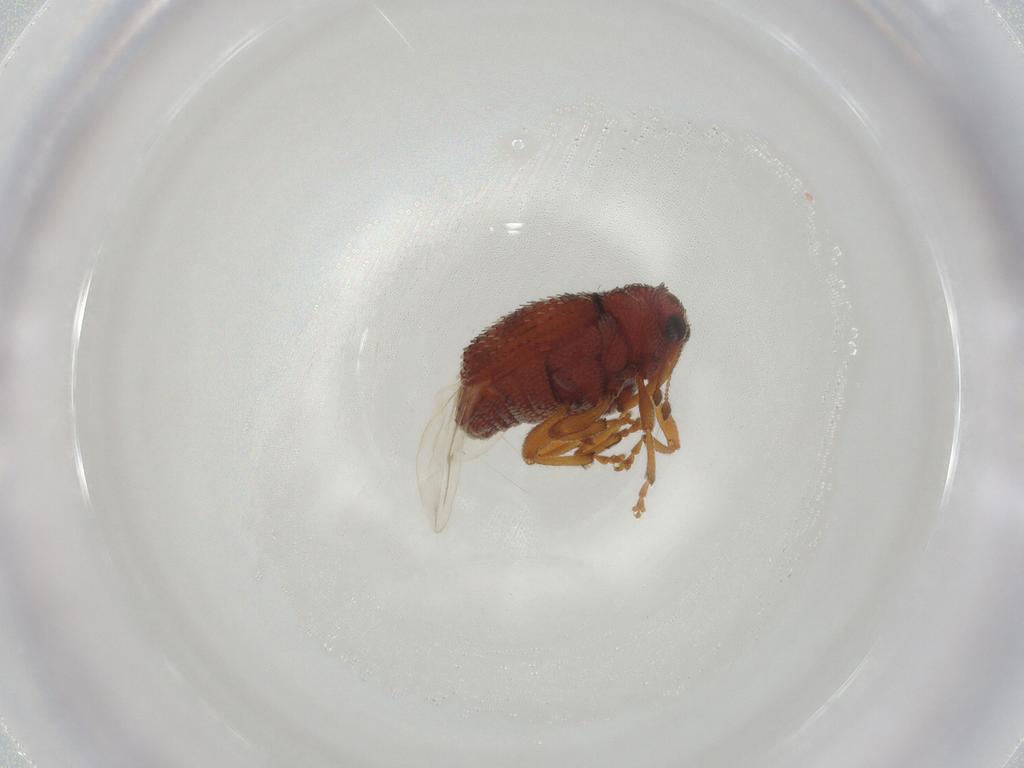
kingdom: Animalia
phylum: Arthropoda
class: Insecta
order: Coleoptera
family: Curculionidae
